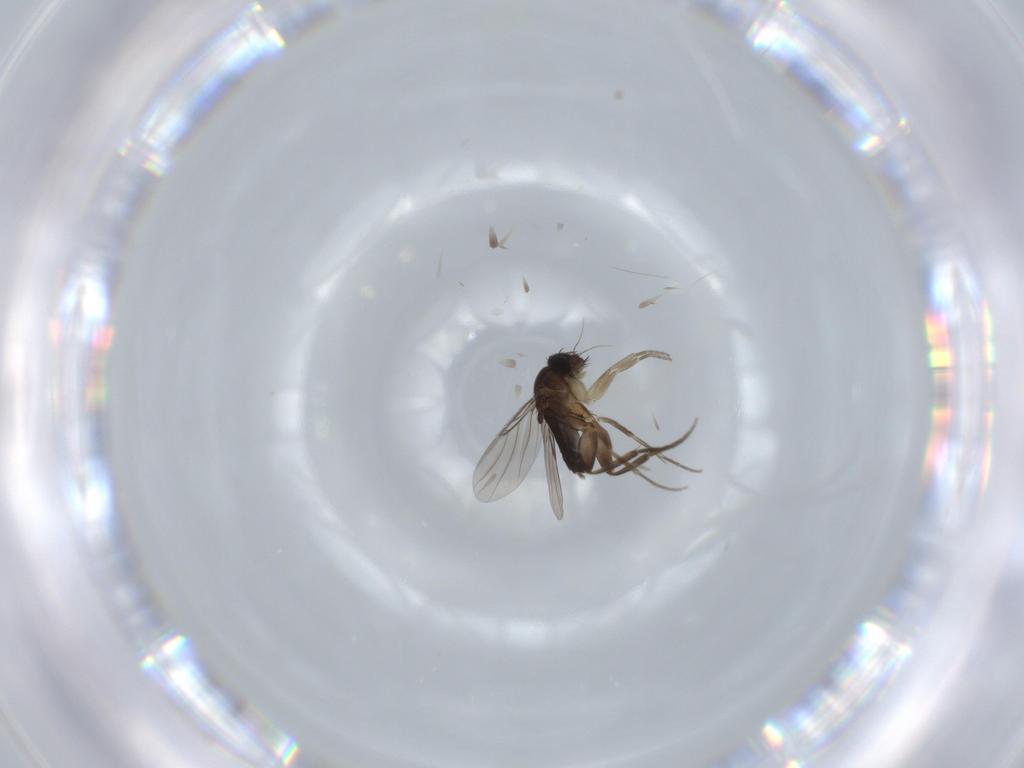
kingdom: Animalia
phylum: Arthropoda
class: Insecta
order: Diptera
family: Phoridae
